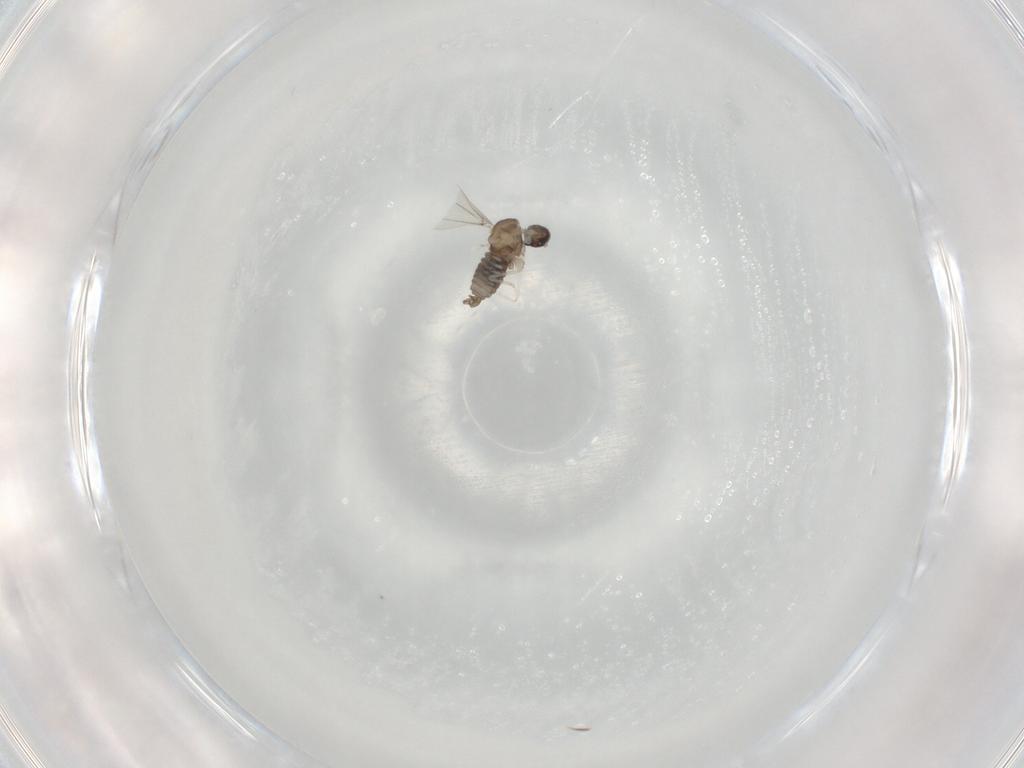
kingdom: Animalia
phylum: Arthropoda
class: Insecta
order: Diptera
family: Cecidomyiidae
